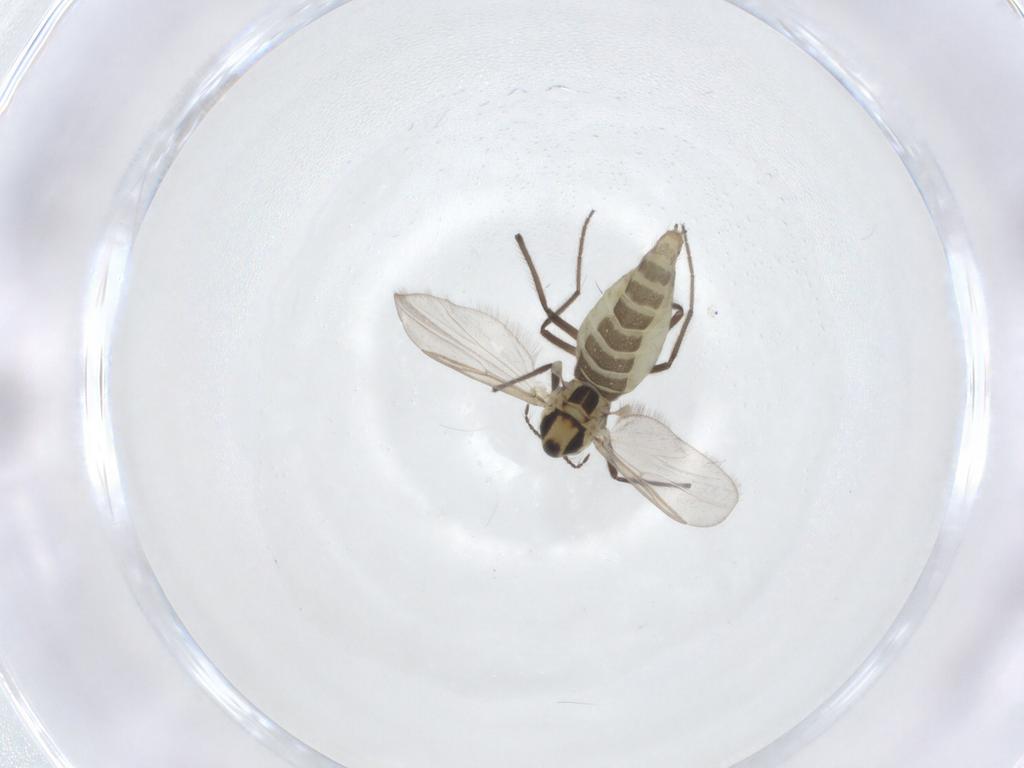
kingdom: Animalia
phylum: Arthropoda
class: Insecta
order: Diptera
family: Chironomidae
